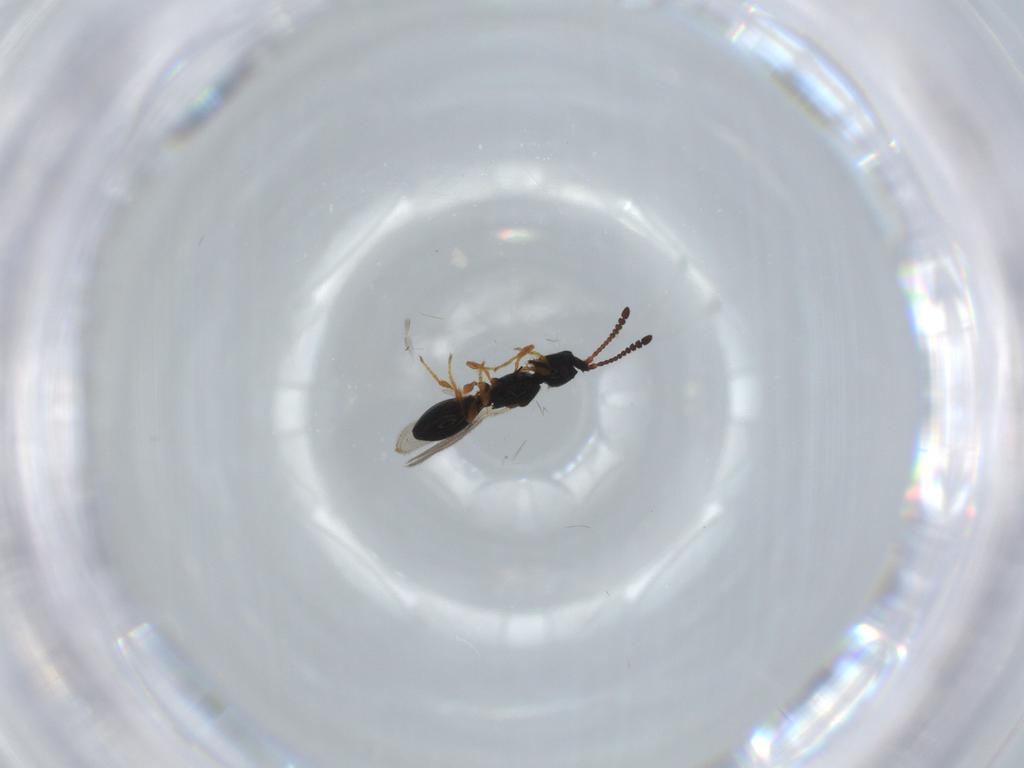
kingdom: Animalia
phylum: Arthropoda
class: Insecta
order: Hymenoptera
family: Diapriidae
